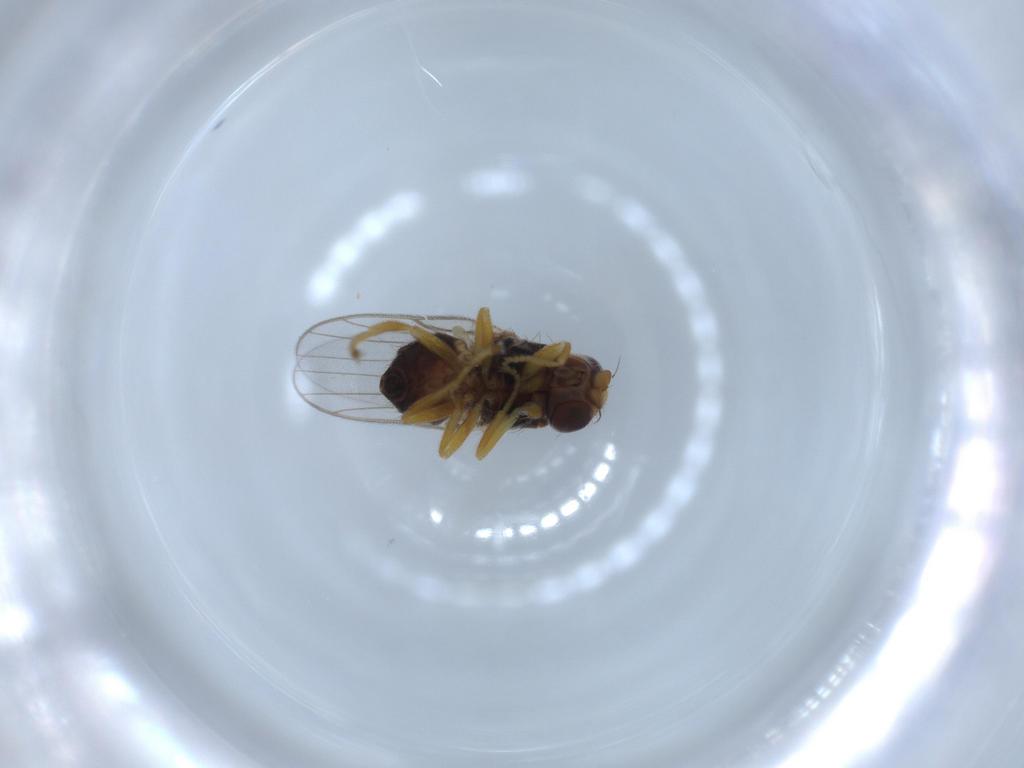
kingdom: Animalia
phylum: Arthropoda
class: Insecta
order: Diptera
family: Chloropidae
